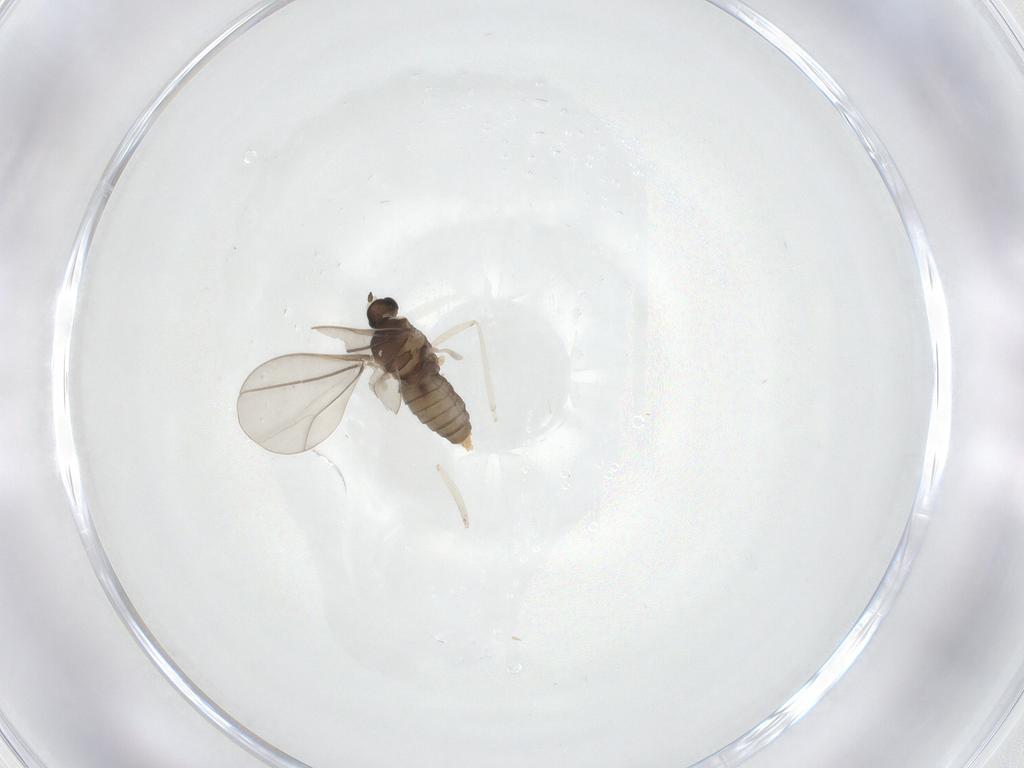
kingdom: Animalia
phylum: Arthropoda
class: Insecta
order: Diptera
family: Cecidomyiidae
